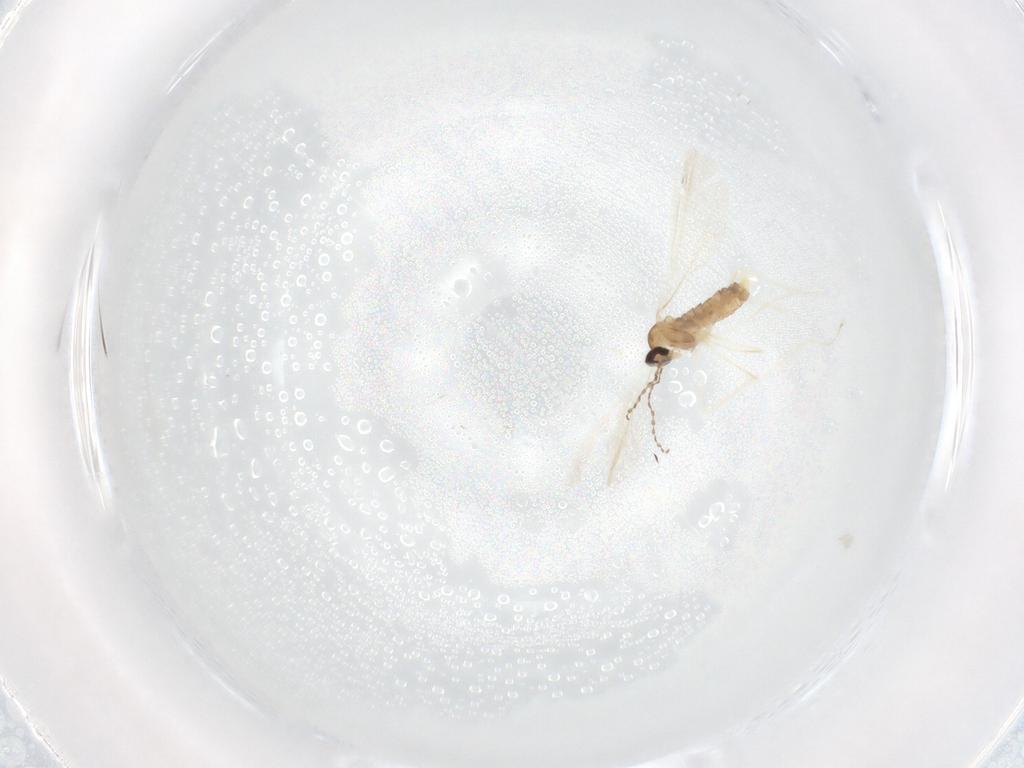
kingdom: Animalia
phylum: Arthropoda
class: Insecta
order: Diptera
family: Cecidomyiidae
